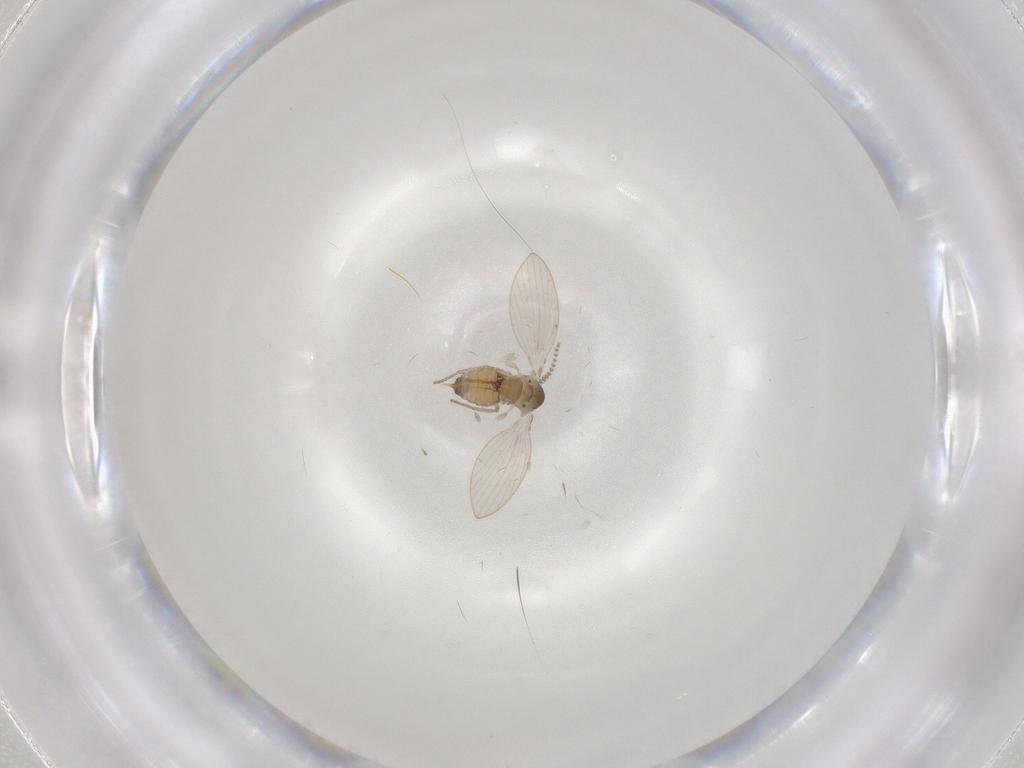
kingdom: Animalia
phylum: Arthropoda
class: Insecta
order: Diptera
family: Psychodidae
